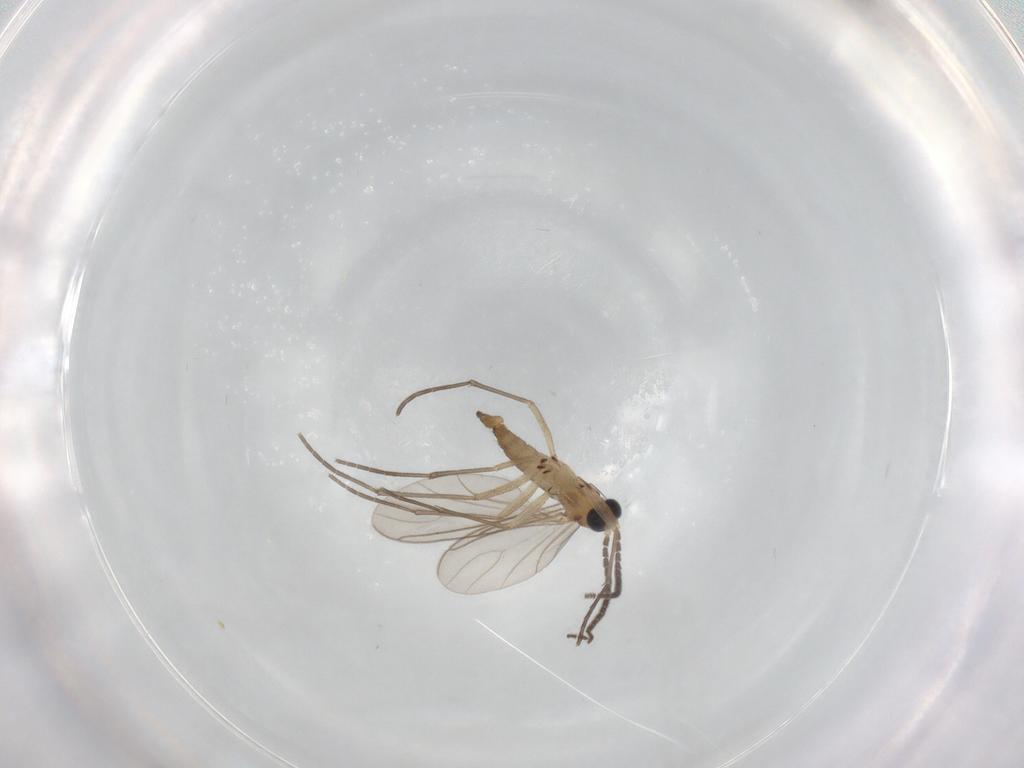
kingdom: Animalia
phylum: Arthropoda
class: Insecta
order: Diptera
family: Sciaridae
